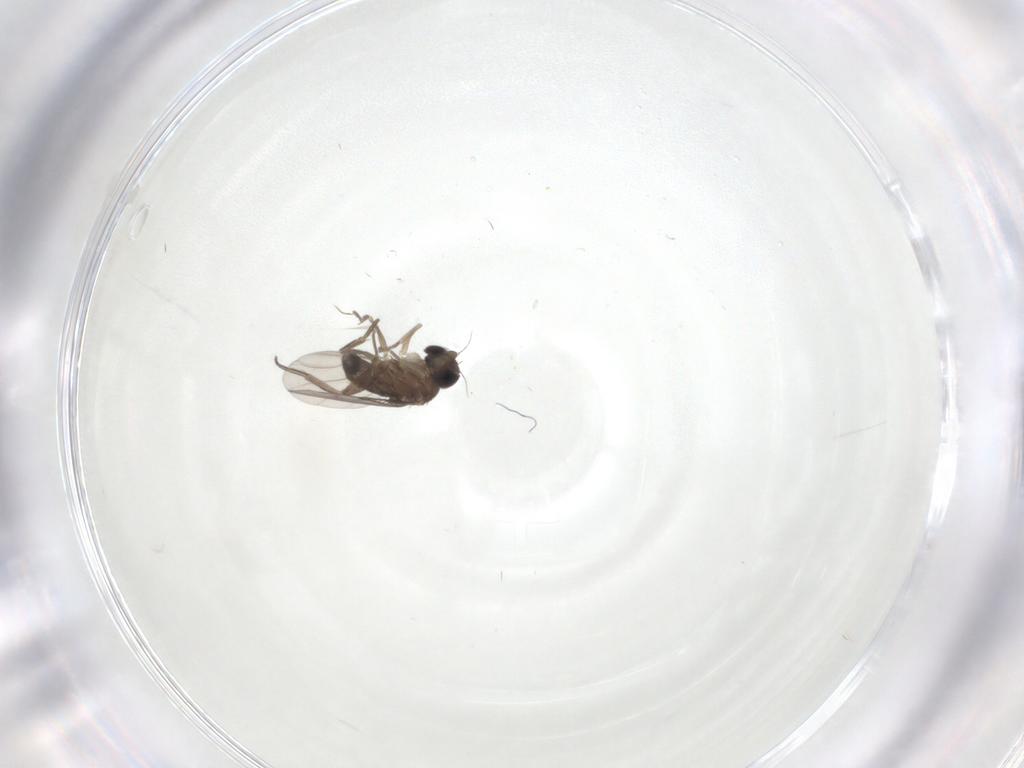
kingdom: Animalia
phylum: Arthropoda
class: Insecta
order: Diptera
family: Phoridae
